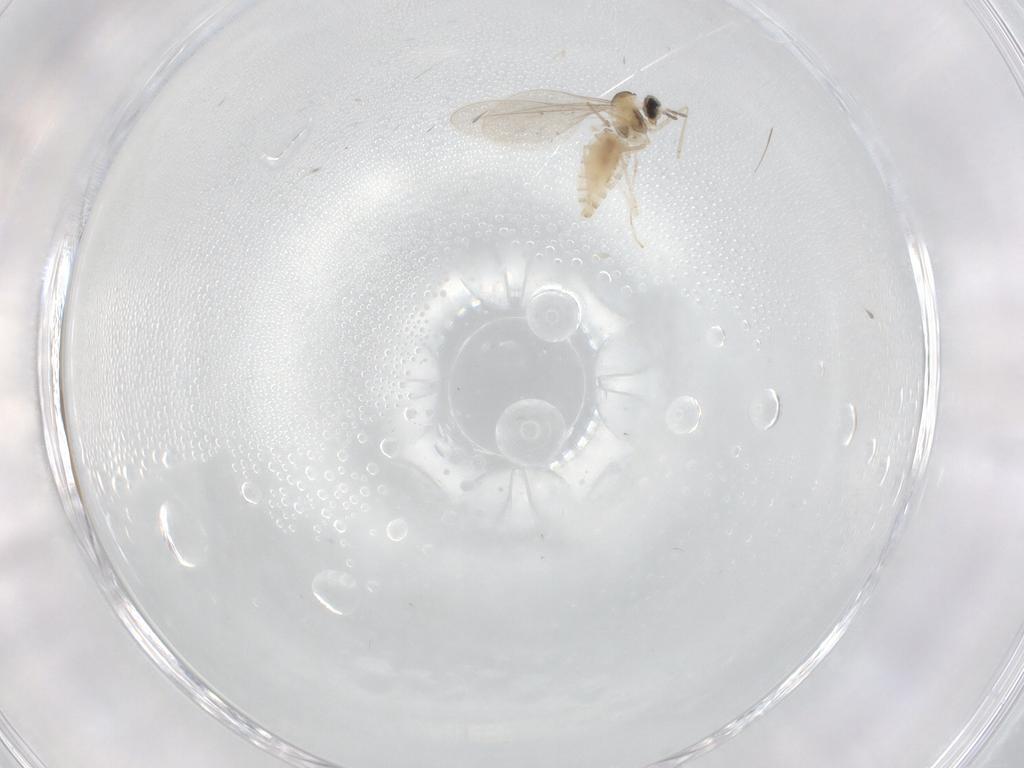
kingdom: Animalia
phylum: Arthropoda
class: Insecta
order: Diptera
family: Cecidomyiidae
